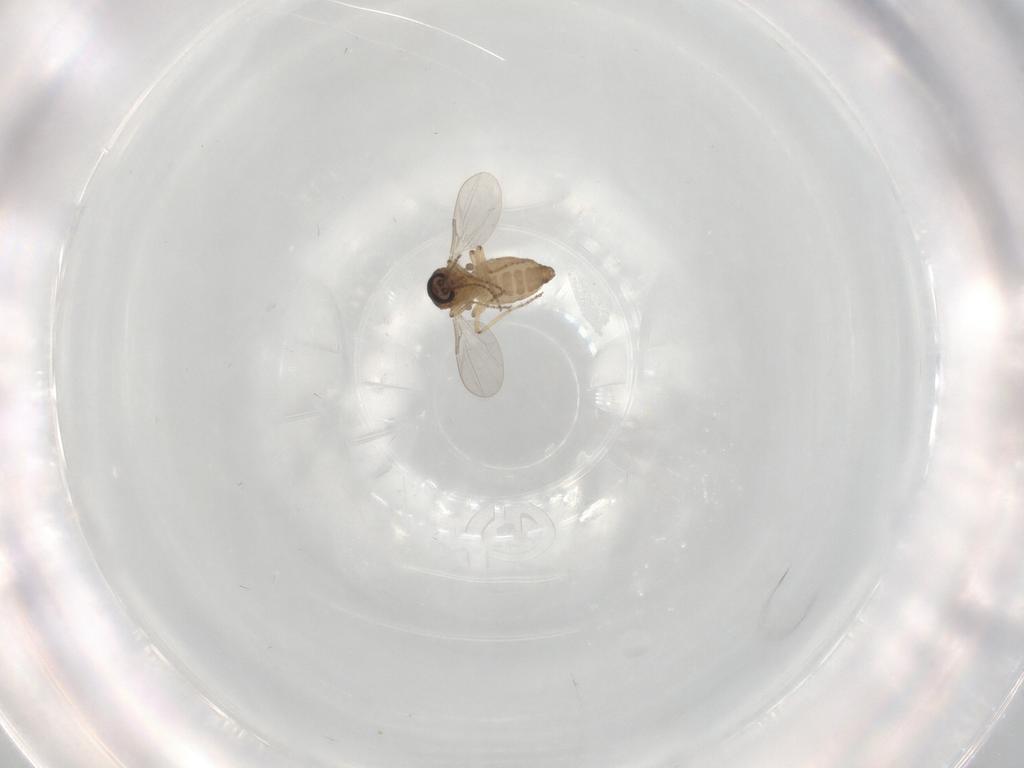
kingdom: Animalia
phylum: Arthropoda
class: Insecta
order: Diptera
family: Ceratopogonidae
